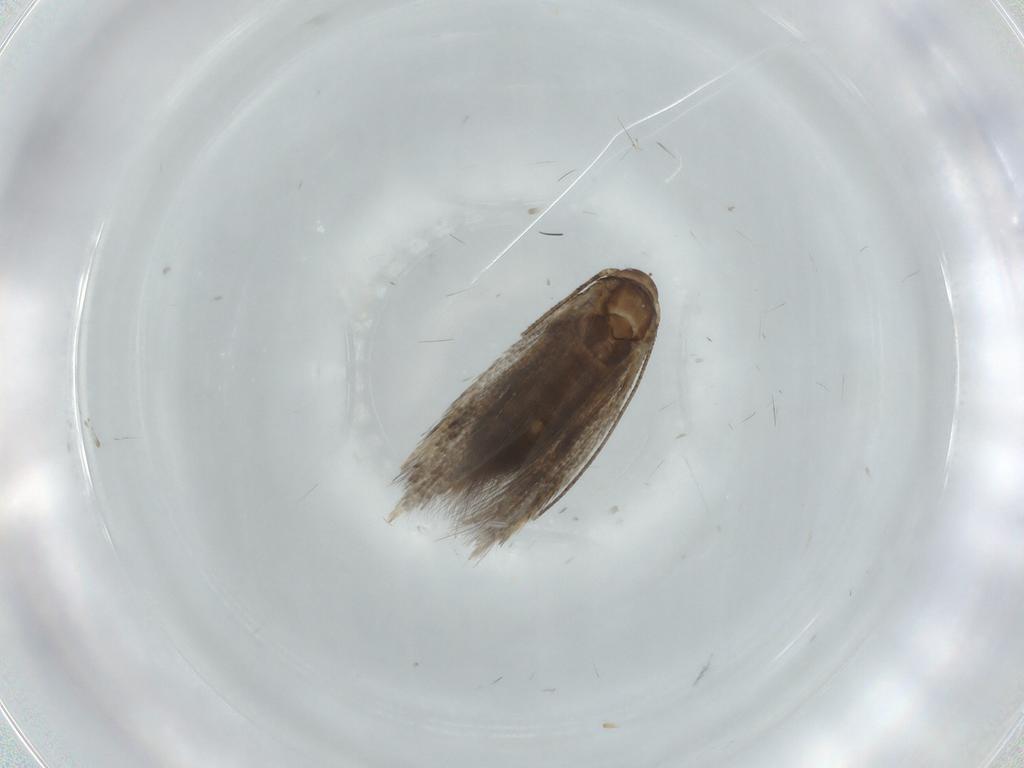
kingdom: Animalia
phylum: Arthropoda
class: Insecta
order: Lepidoptera
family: Elachistidae
